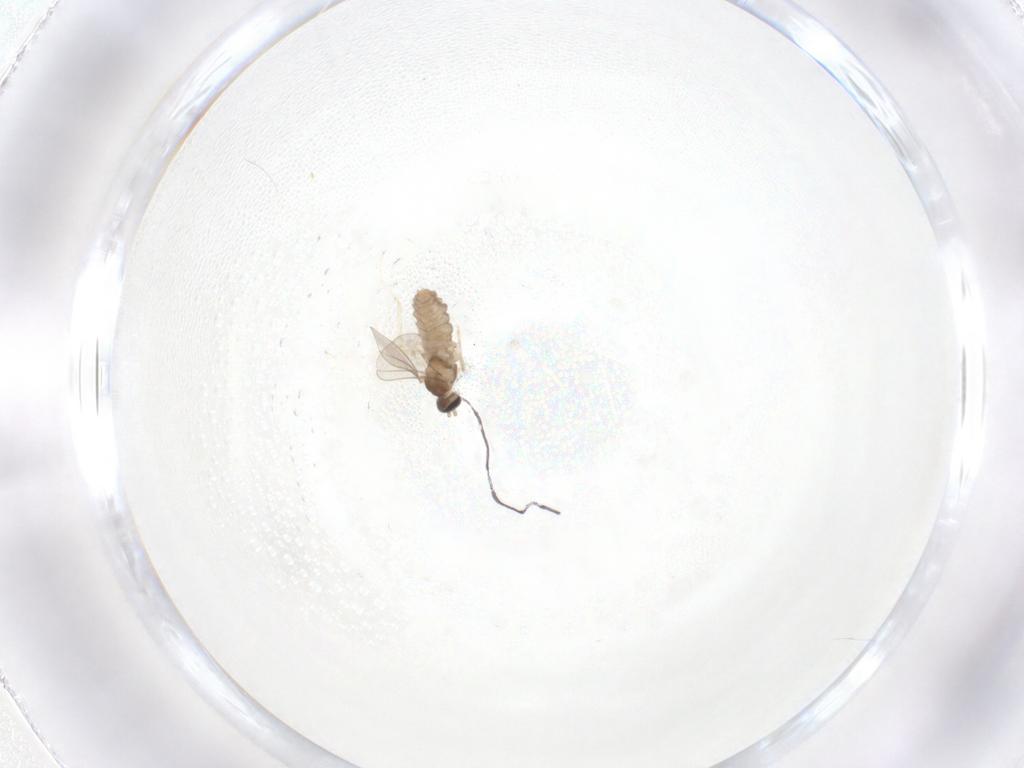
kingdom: Animalia
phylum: Arthropoda
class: Insecta
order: Diptera
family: Cecidomyiidae
